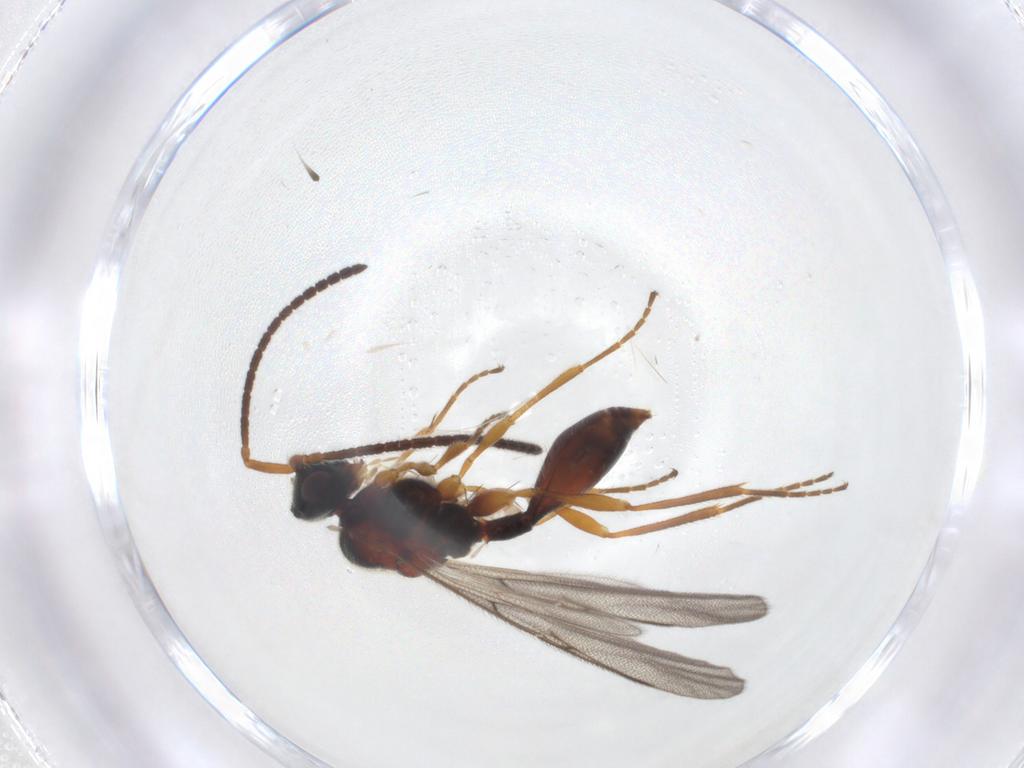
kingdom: Animalia
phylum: Arthropoda
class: Insecta
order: Hymenoptera
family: Diapriidae
